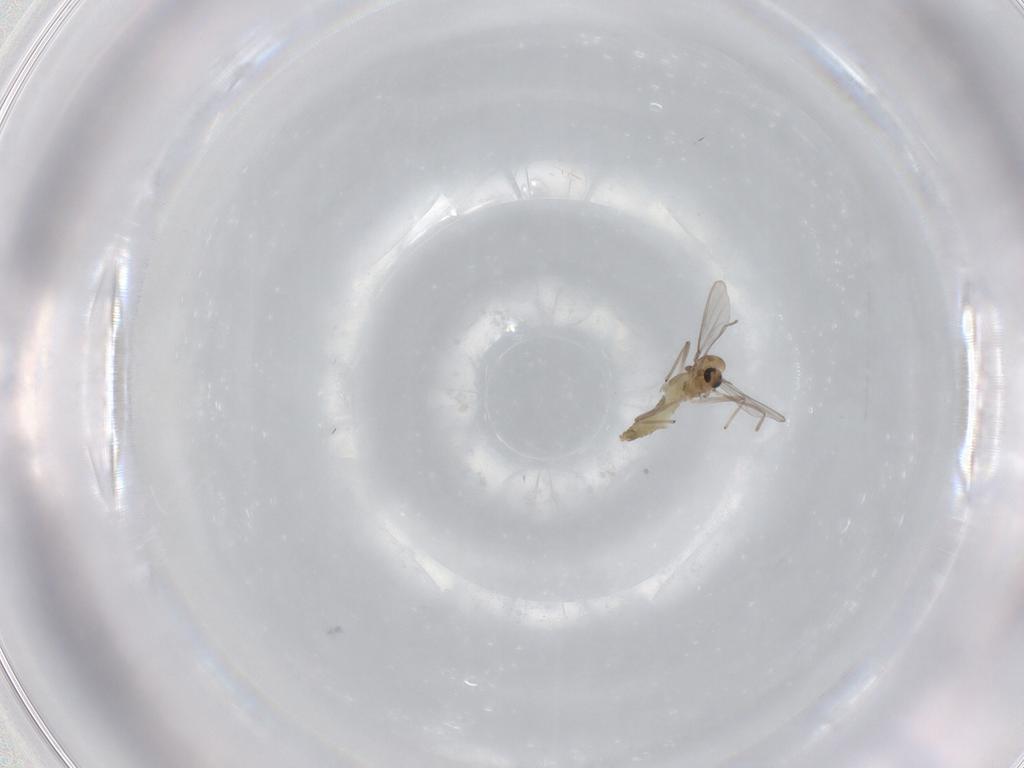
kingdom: Animalia
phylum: Arthropoda
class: Insecta
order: Diptera
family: Chironomidae
